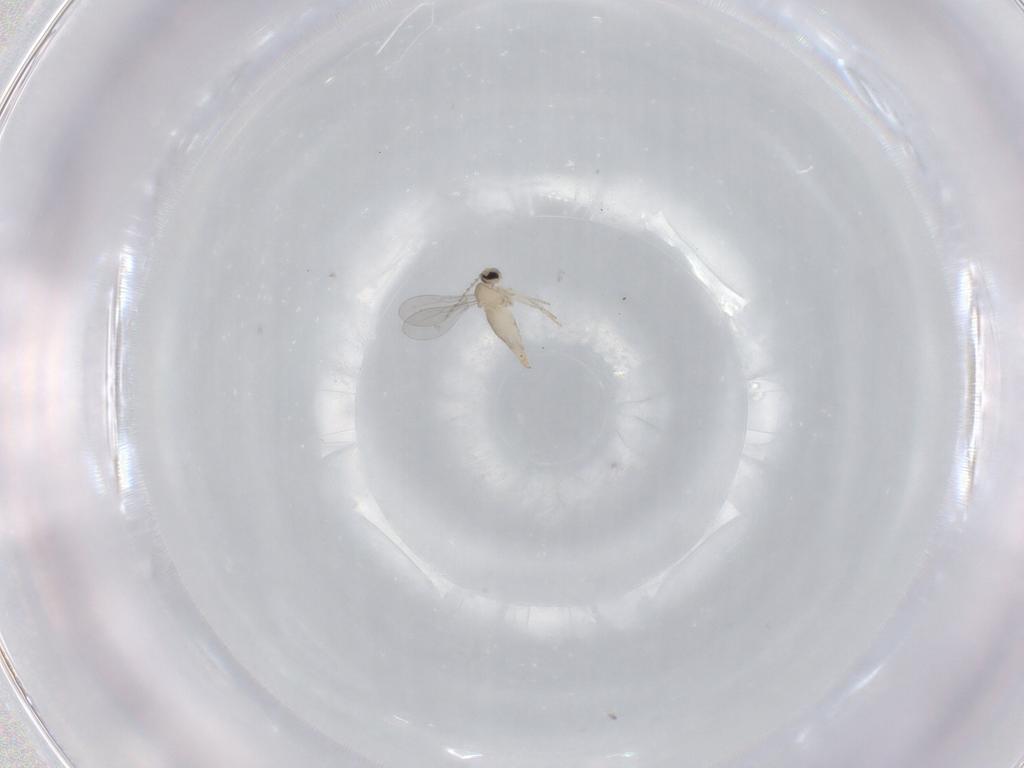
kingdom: Animalia
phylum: Arthropoda
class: Insecta
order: Diptera
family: Cecidomyiidae
